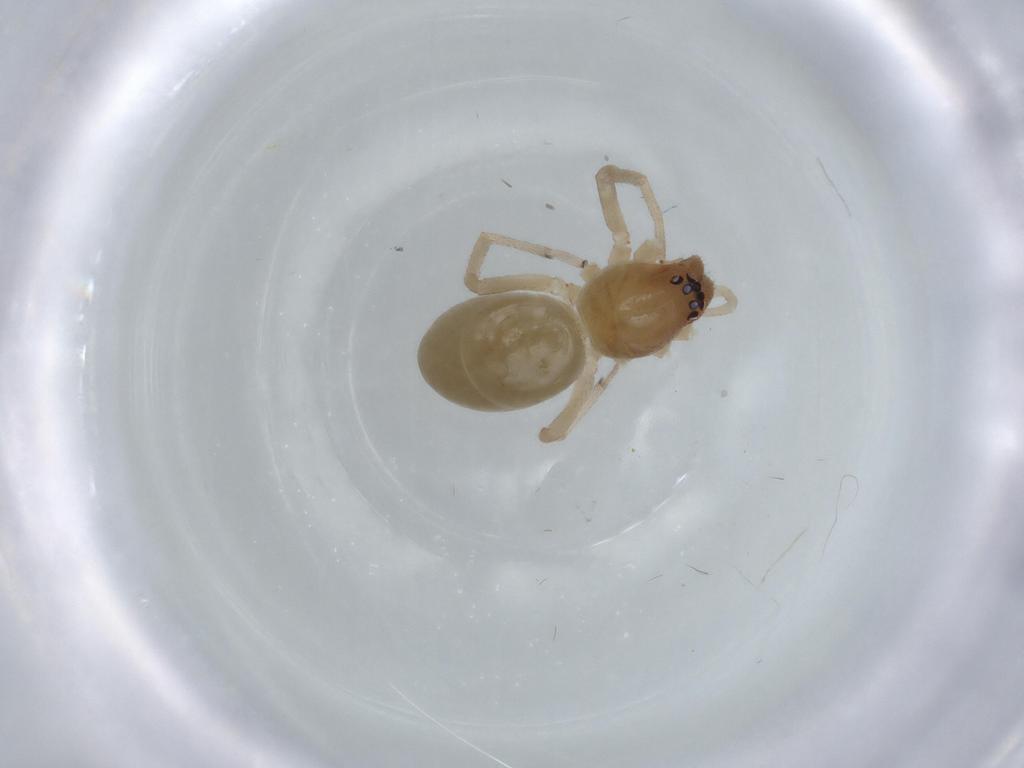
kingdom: Animalia
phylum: Arthropoda
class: Arachnida
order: Araneae
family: Trachelidae
